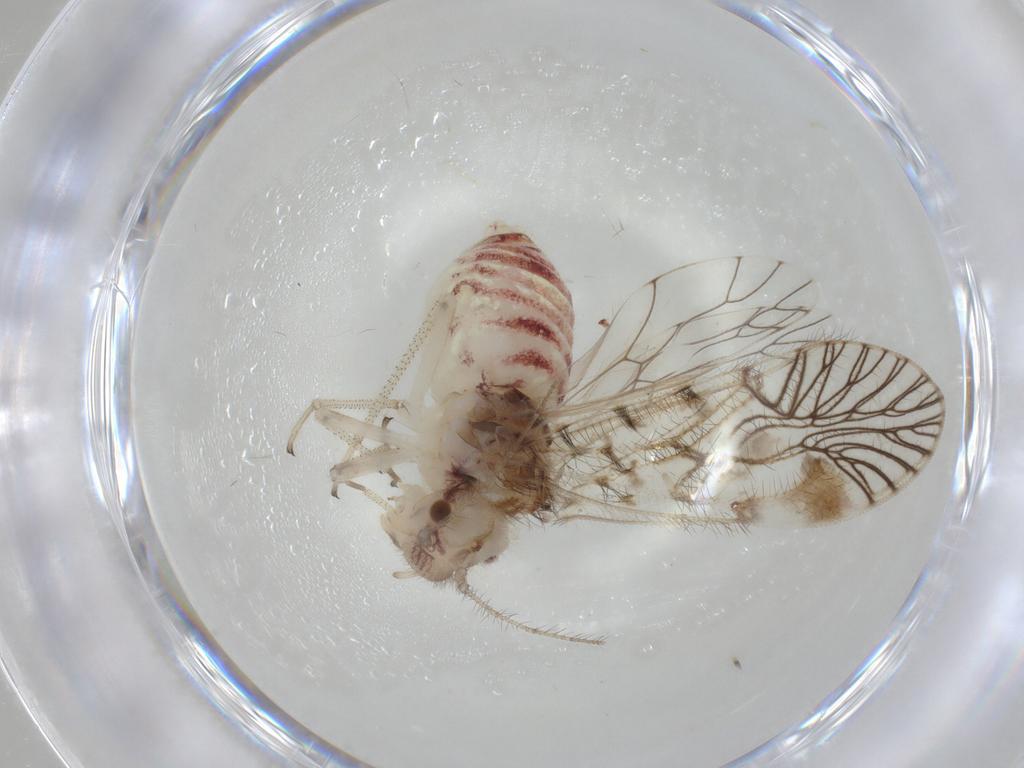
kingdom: Animalia
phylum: Arthropoda
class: Insecta
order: Psocodea
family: Amphipsocidae
